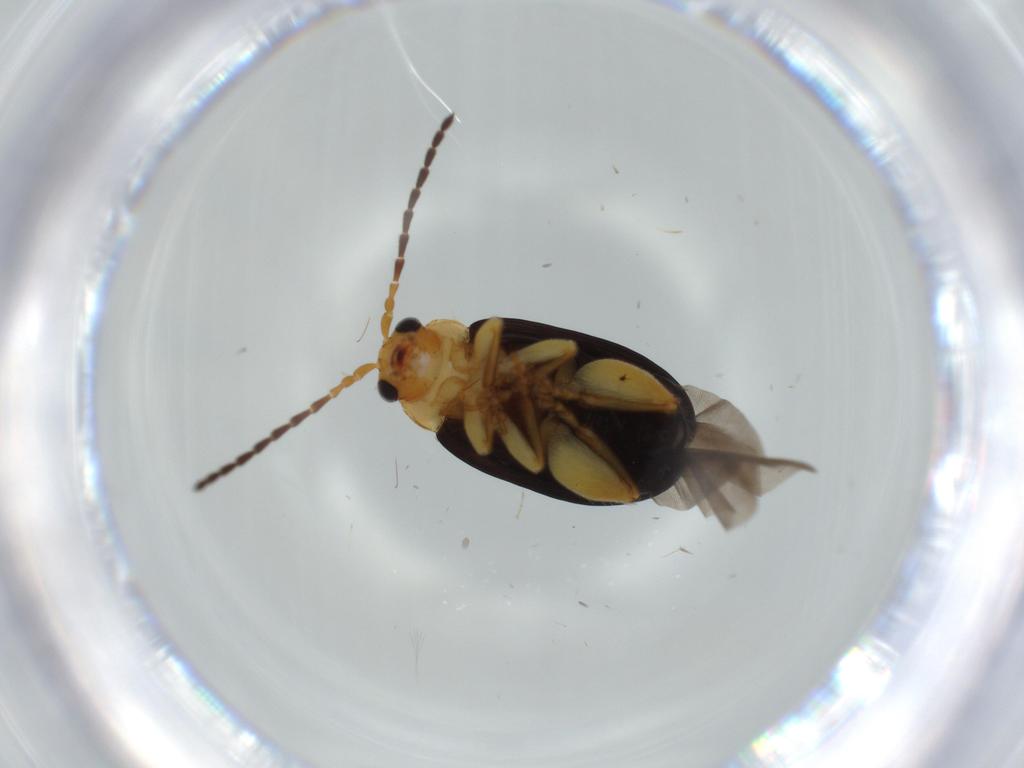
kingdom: Animalia
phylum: Arthropoda
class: Insecta
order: Coleoptera
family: Chrysomelidae
